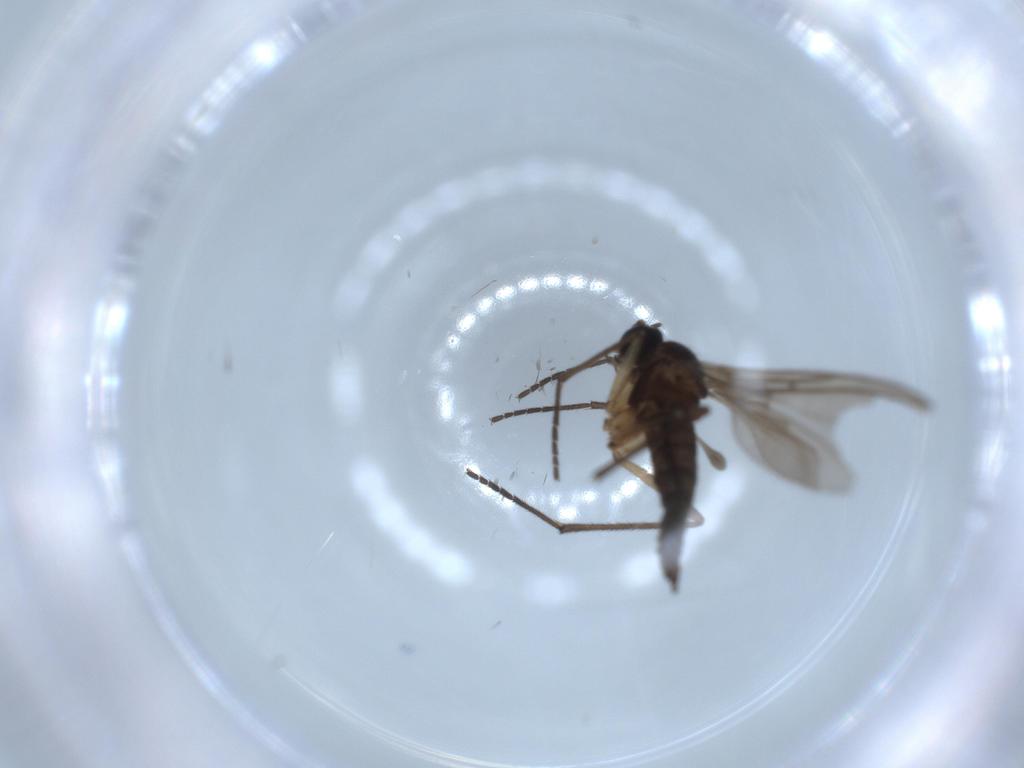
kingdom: Animalia
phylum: Arthropoda
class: Insecta
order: Diptera
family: Sciaridae
